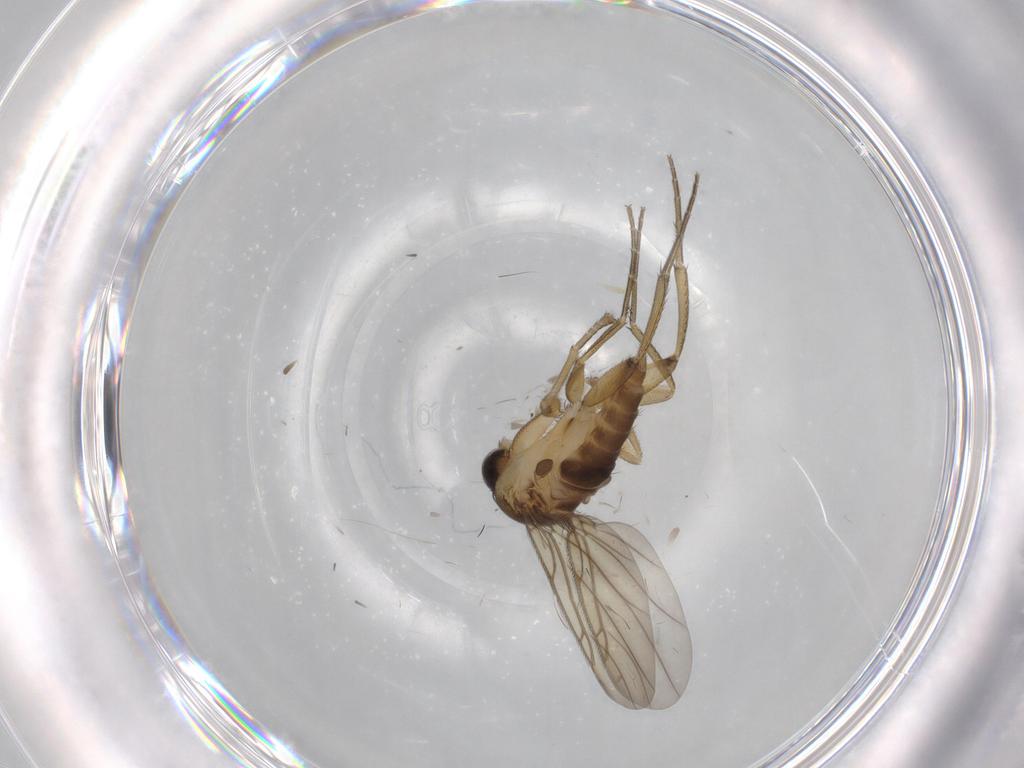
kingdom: Animalia
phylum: Arthropoda
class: Insecta
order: Diptera
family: Phoridae
